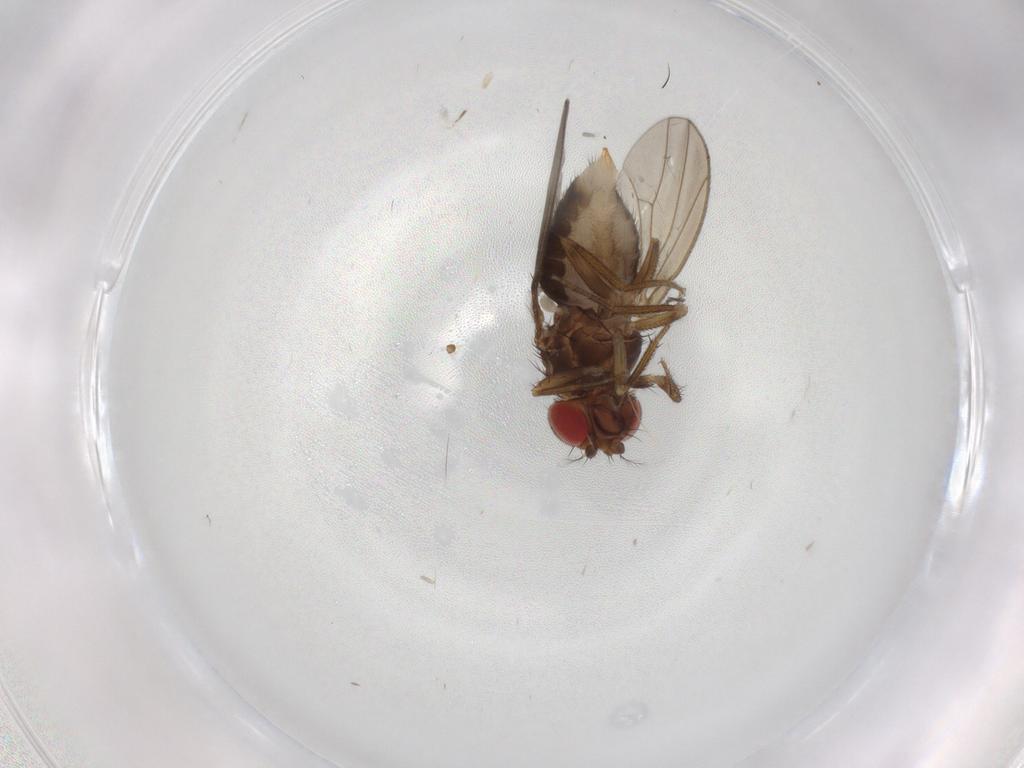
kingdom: Animalia
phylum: Arthropoda
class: Insecta
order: Diptera
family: Drosophilidae
